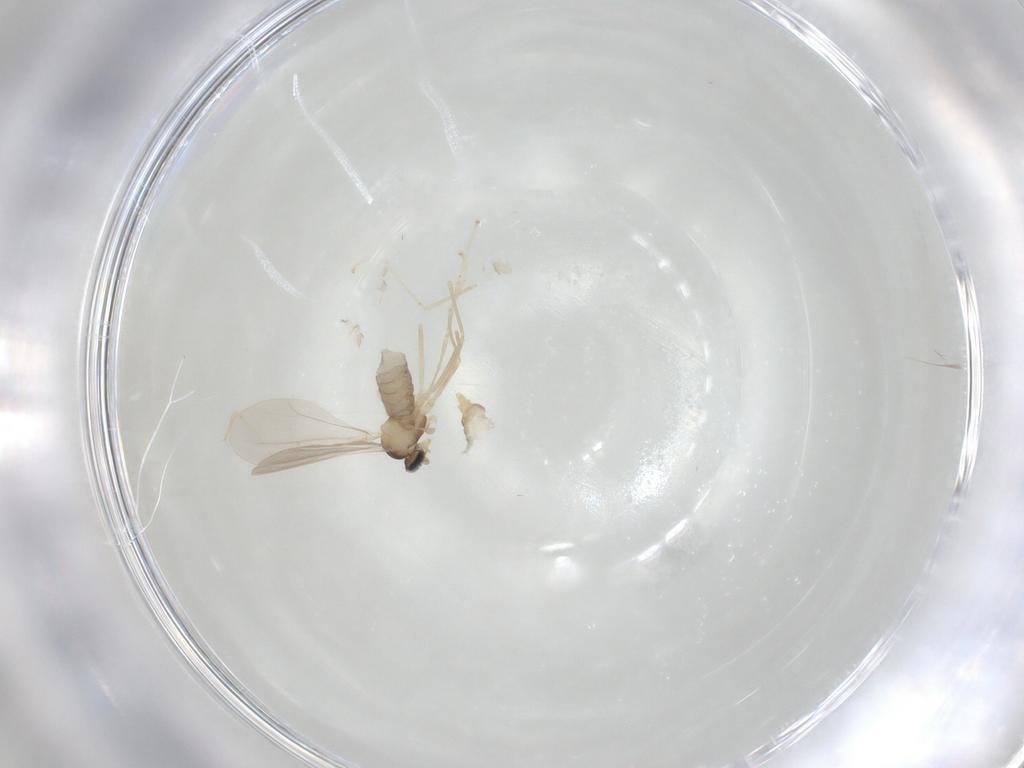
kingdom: Animalia
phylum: Arthropoda
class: Insecta
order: Diptera
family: Cecidomyiidae
